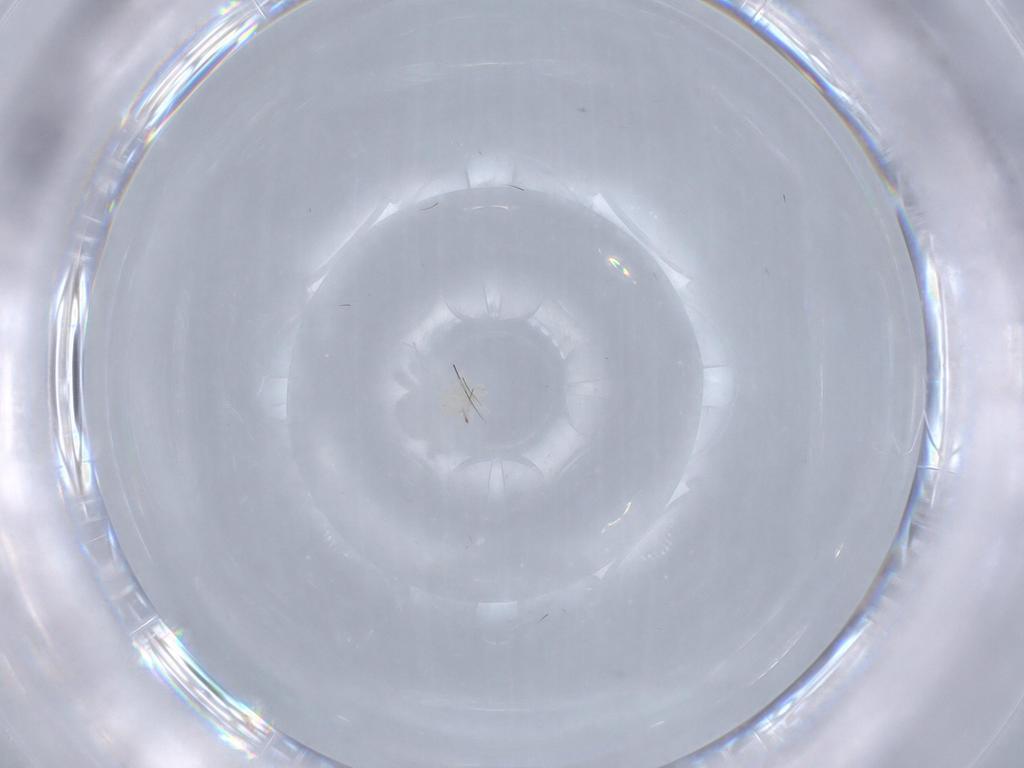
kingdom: Animalia
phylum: Arthropoda
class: Arachnida
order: Trombidiformes
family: Anystidae
